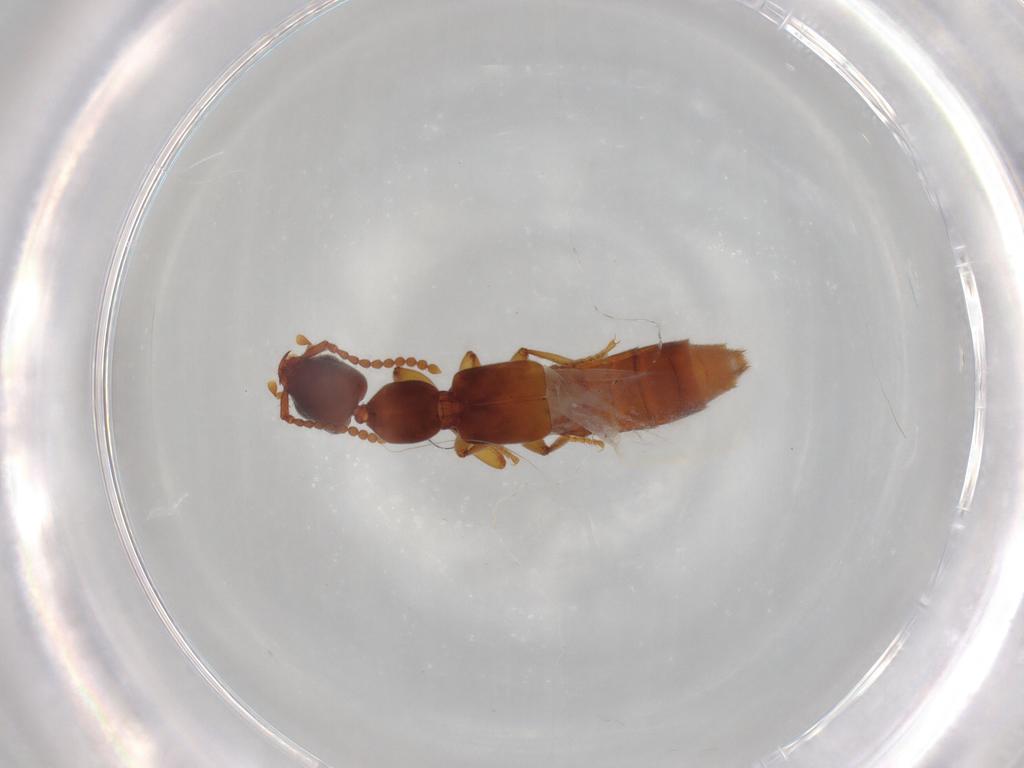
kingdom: Animalia
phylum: Arthropoda
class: Insecta
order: Coleoptera
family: Staphylinidae
